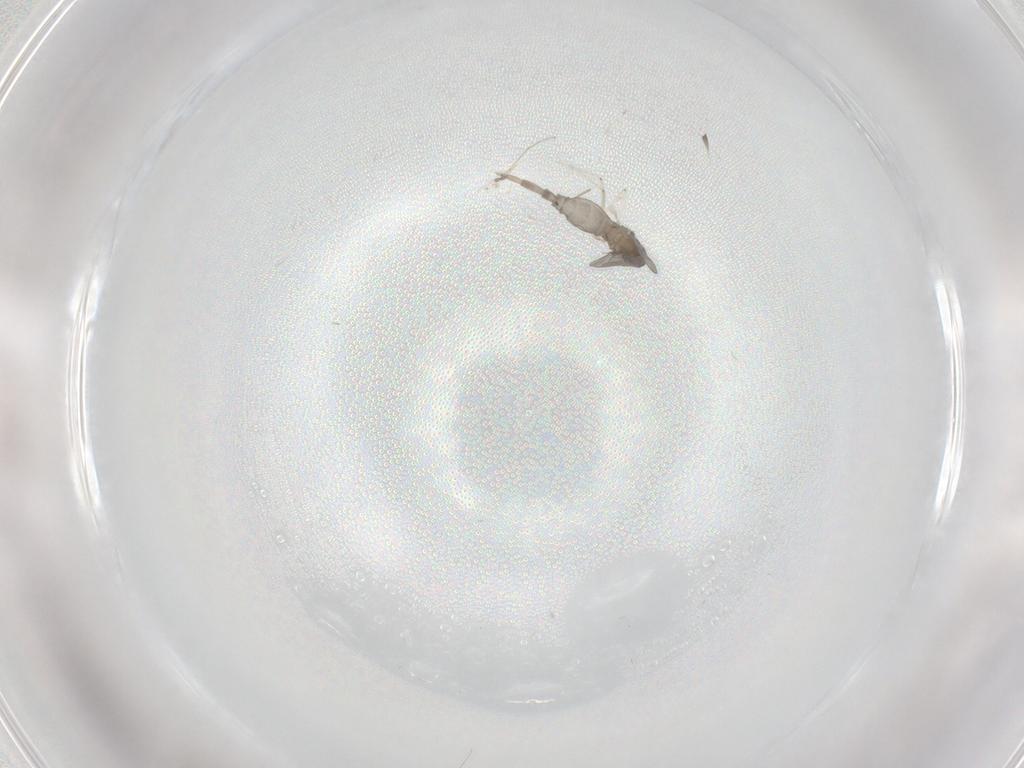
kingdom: Animalia
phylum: Arthropoda
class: Insecta
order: Diptera
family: Cecidomyiidae
